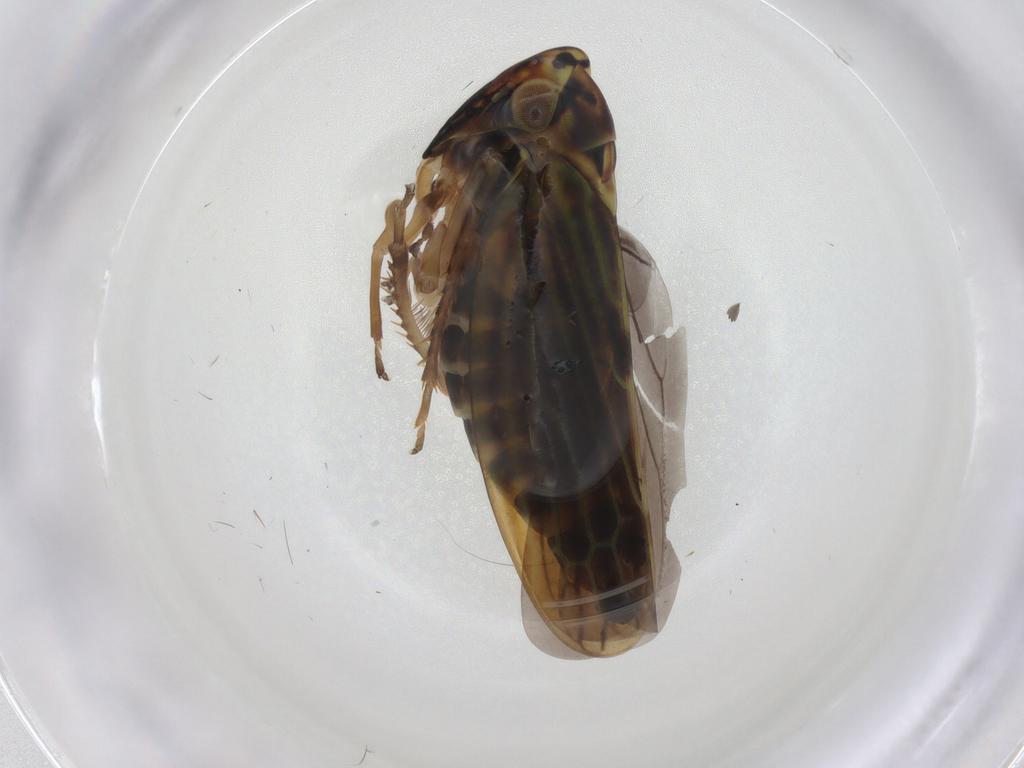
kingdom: Animalia
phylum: Arthropoda
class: Insecta
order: Hemiptera
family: Cicadellidae
